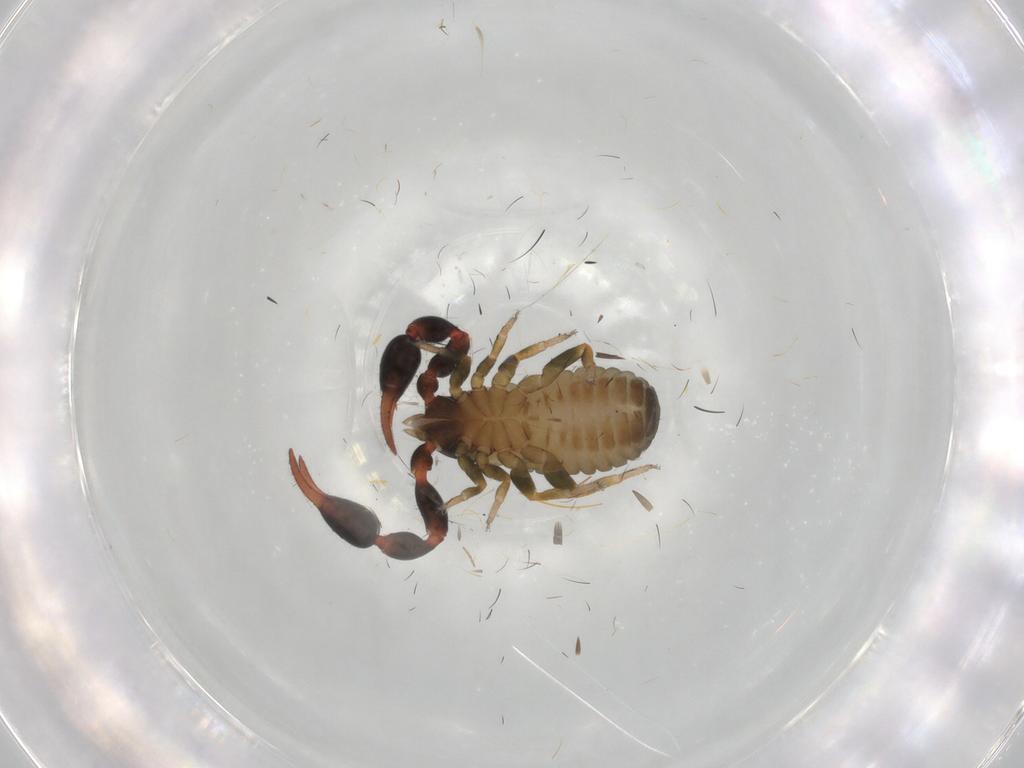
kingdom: Animalia
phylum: Arthropoda
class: Arachnida
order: Pseudoscorpiones
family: Chernetidae
